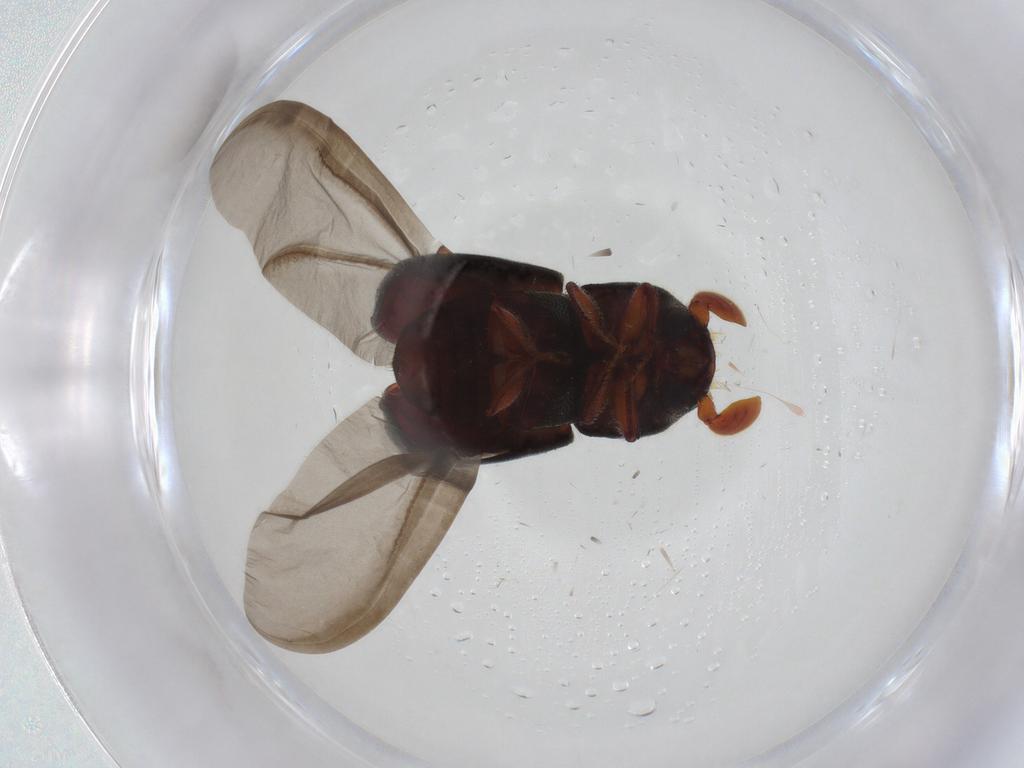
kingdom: Animalia
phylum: Arthropoda
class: Insecta
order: Coleoptera
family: Curculionidae
